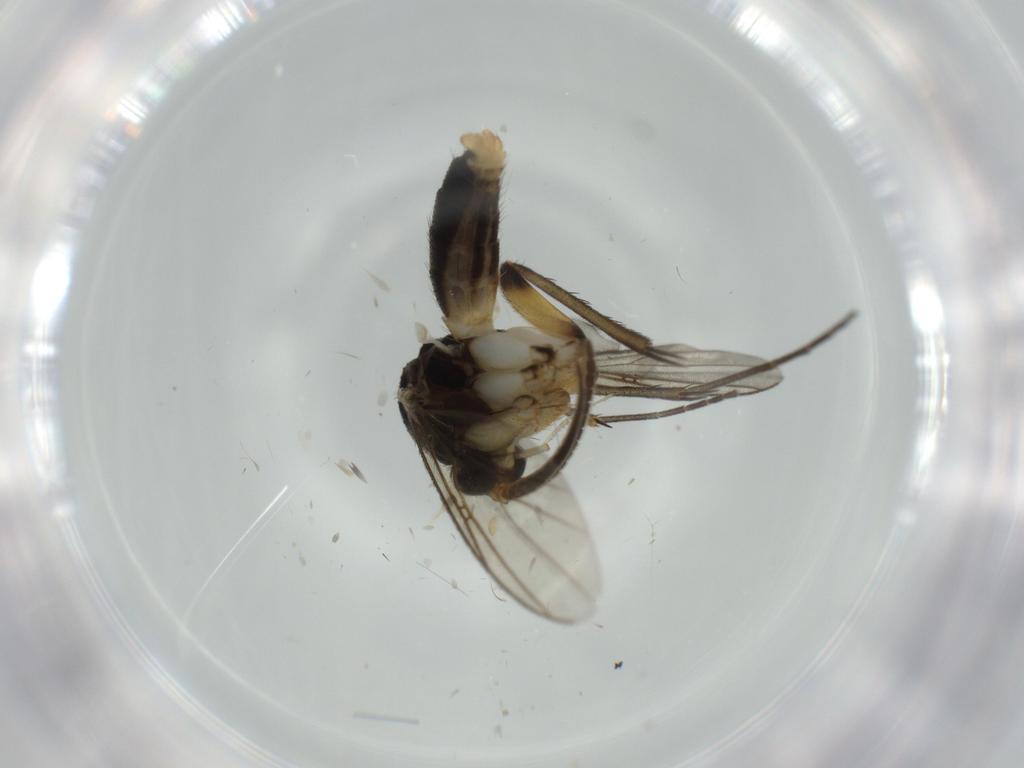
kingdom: Animalia
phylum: Arthropoda
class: Insecta
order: Diptera
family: Mycetophilidae
